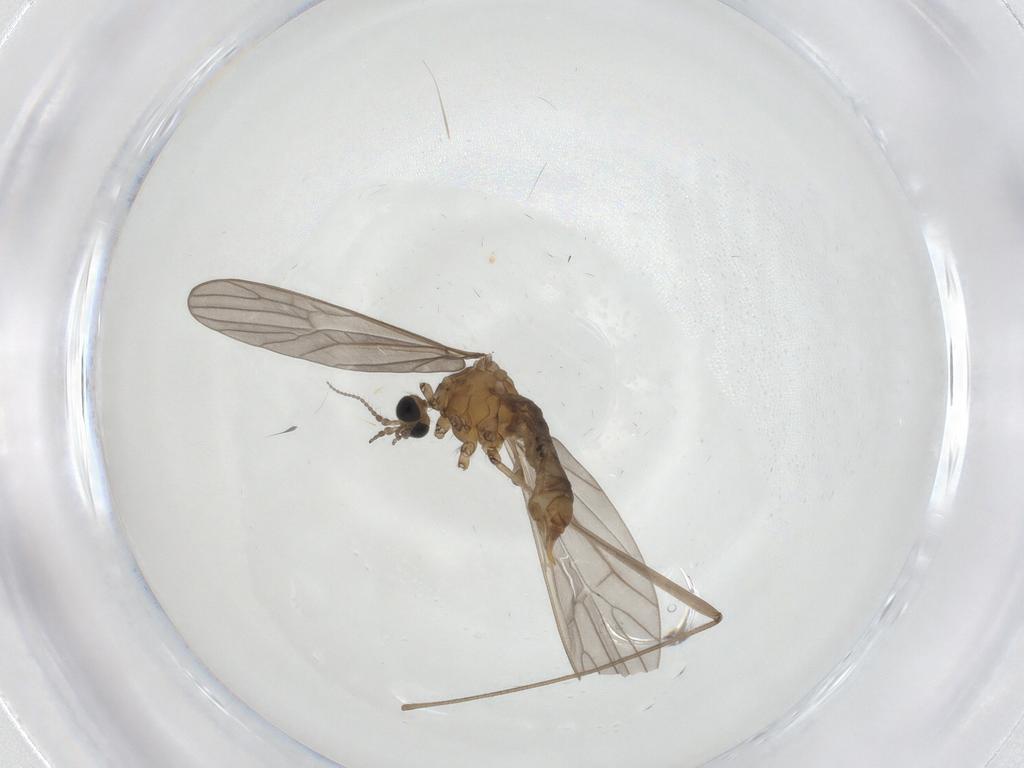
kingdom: Animalia
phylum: Arthropoda
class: Insecta
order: Diptera
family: Limoniidae
